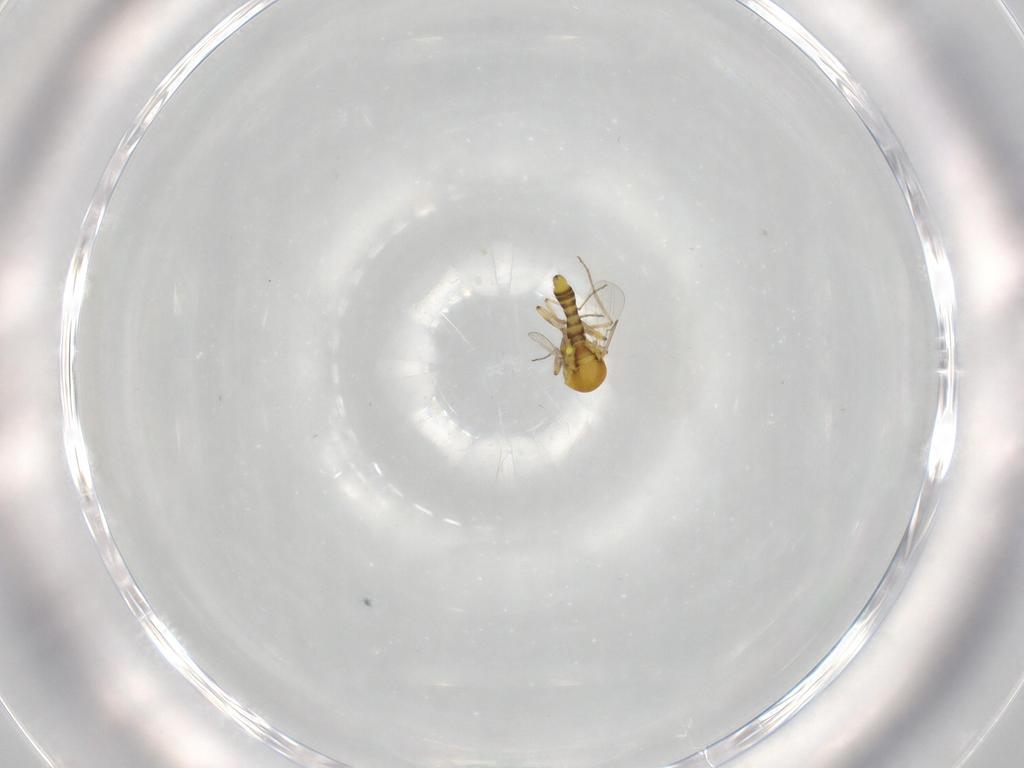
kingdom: Animalia
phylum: Arthropoda
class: Insecta
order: Diptera
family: Ceratopogonidae
